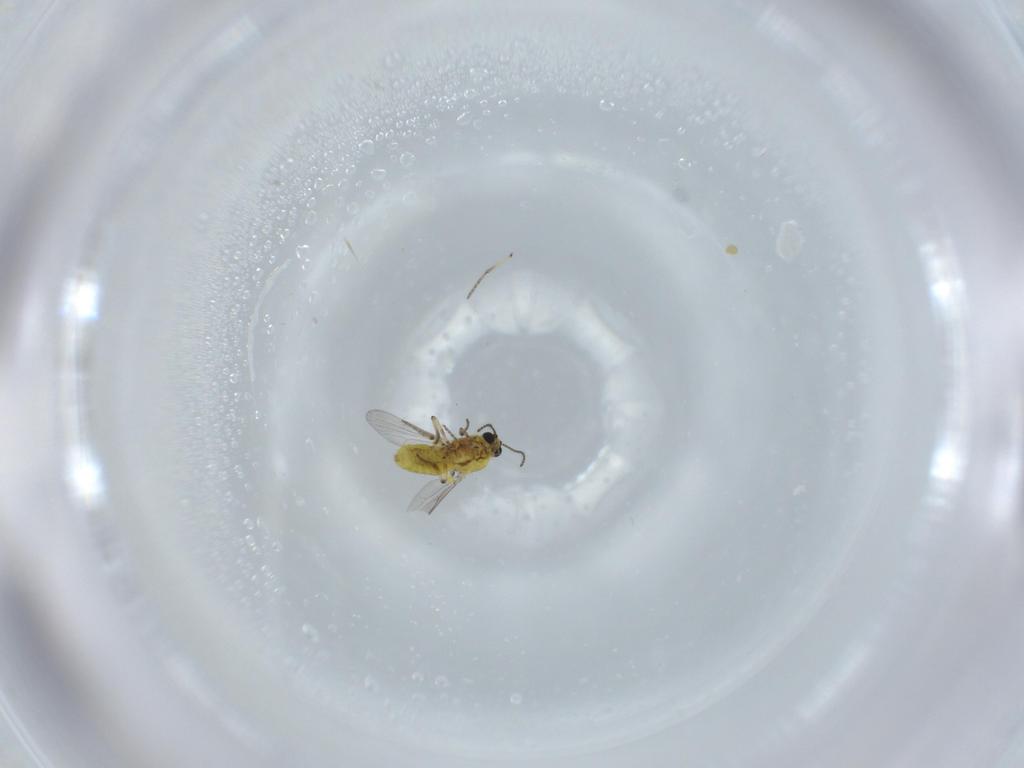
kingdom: Animalia
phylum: Arthropoda
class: Insecta
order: Diptera
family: Ceratopogonidae
